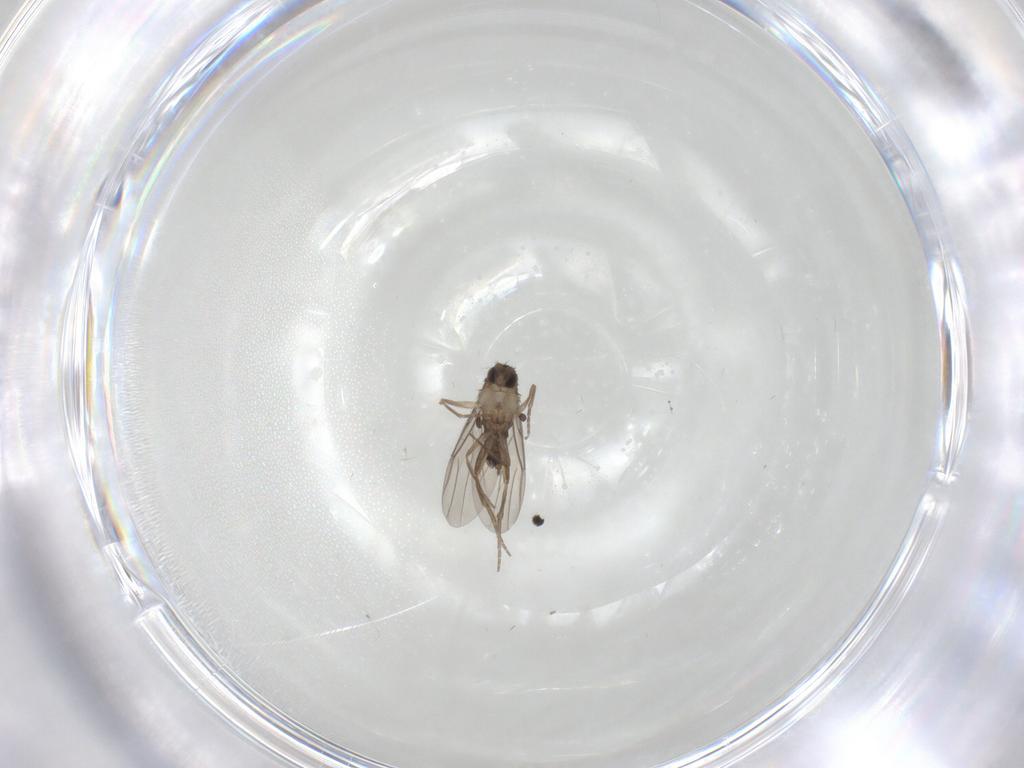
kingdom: Animalia
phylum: Arthropoda
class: Insecta
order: Diptera
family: Cecidomyiidae
